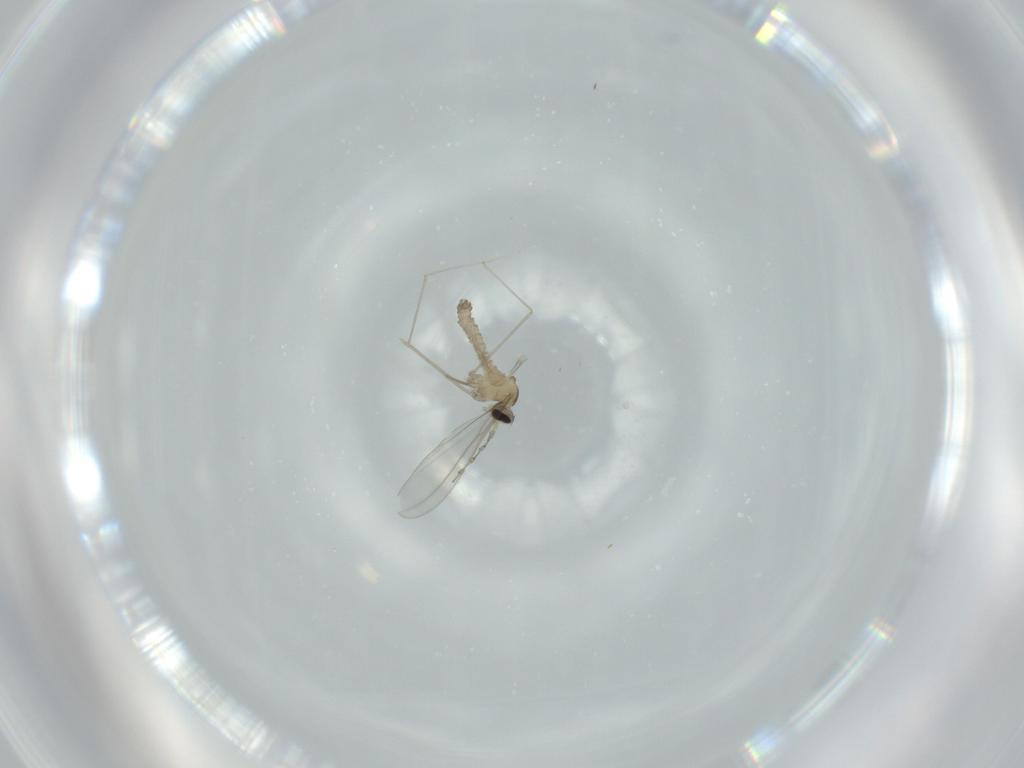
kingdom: Animalia
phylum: Arthropoda
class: Insecta
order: Diptera
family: Cecidomyiidae
